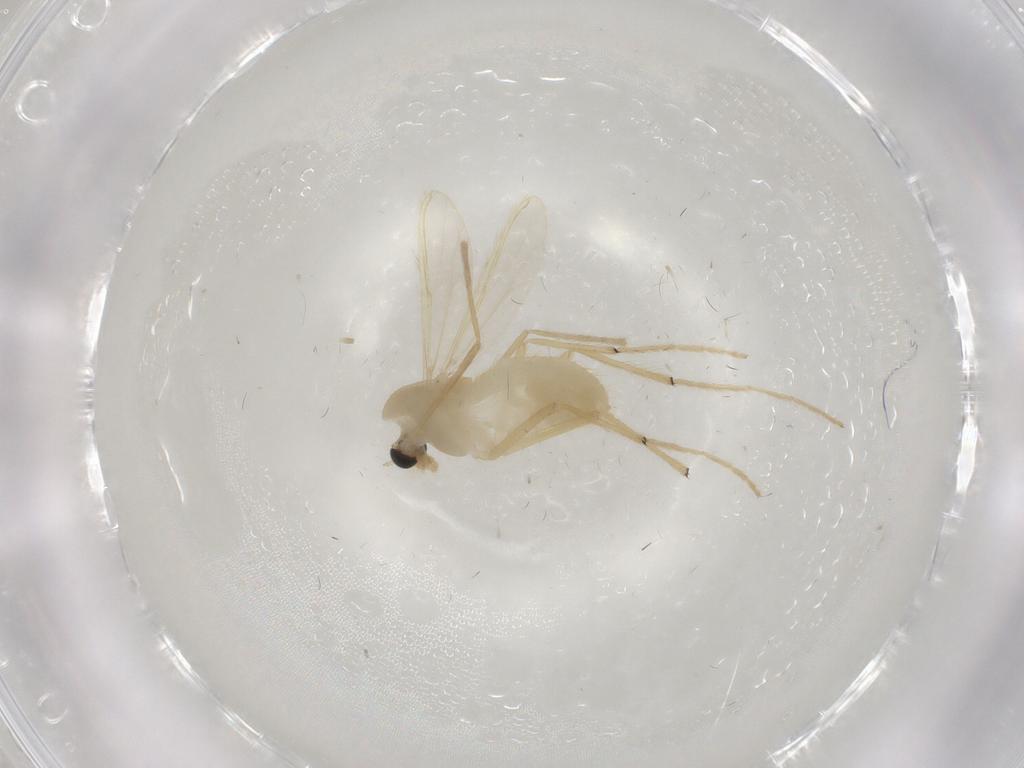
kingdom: Animalia
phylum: Arthropoda
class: Insecta
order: Diptera
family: Chironomidae
